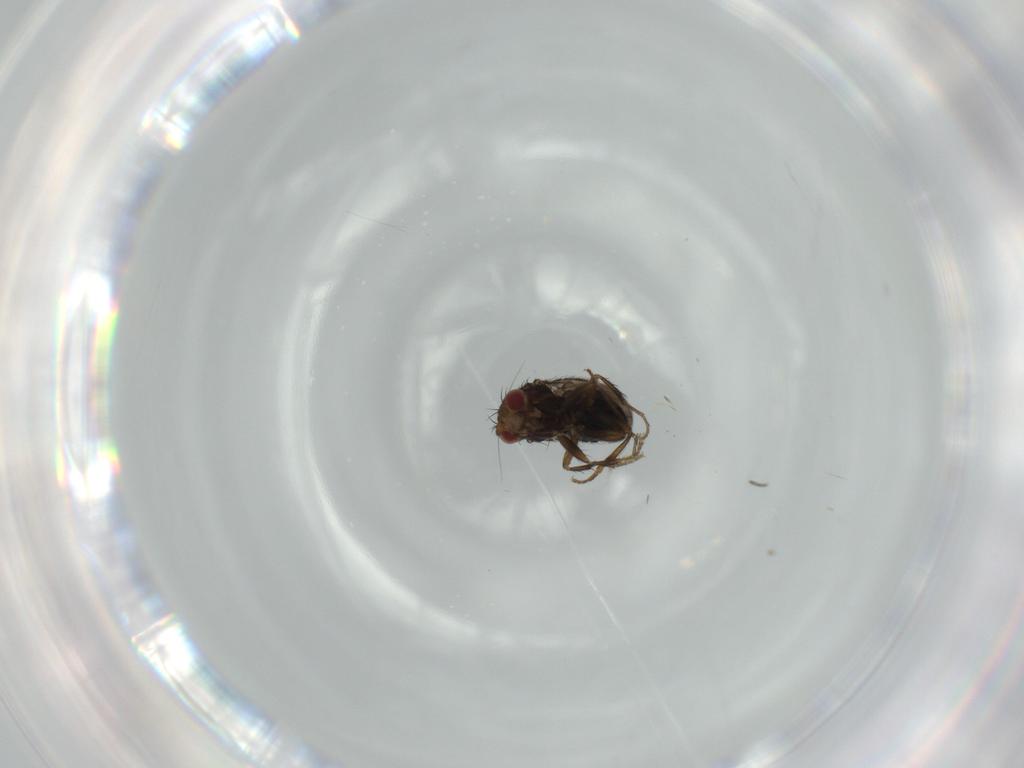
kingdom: Animalia
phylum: Arthropoda
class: Insecta
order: Diptera
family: Sphaeroceridae
